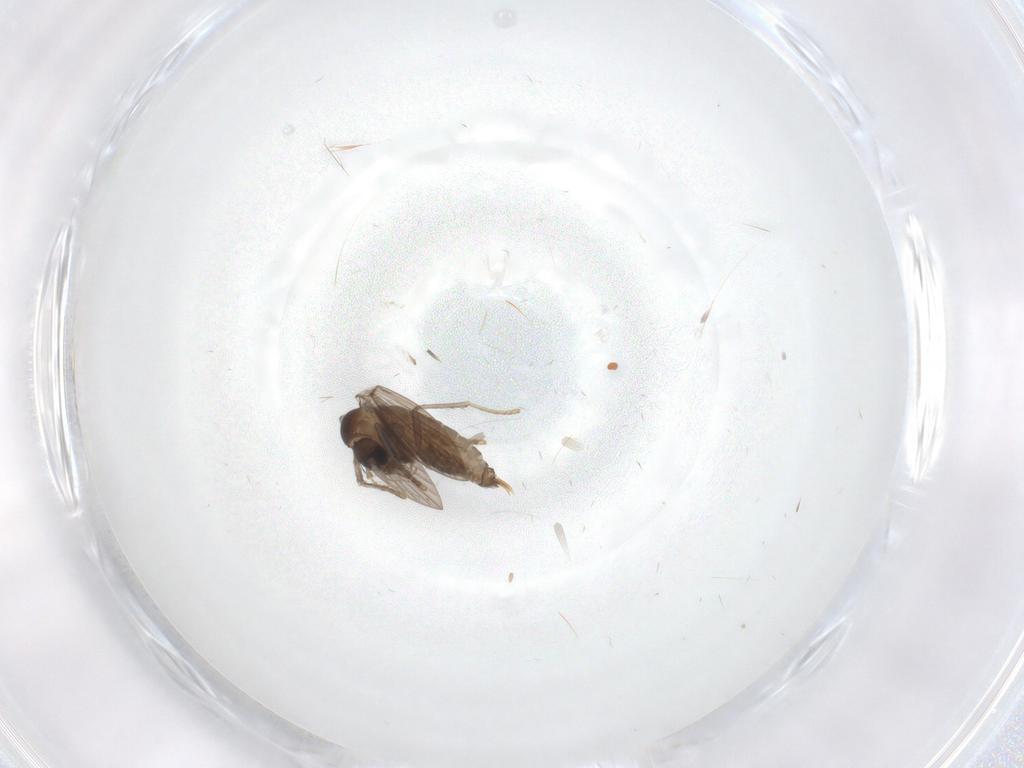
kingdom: Animalia
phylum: Arthropoda
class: Insecta
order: Diptera
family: Psychodidae
